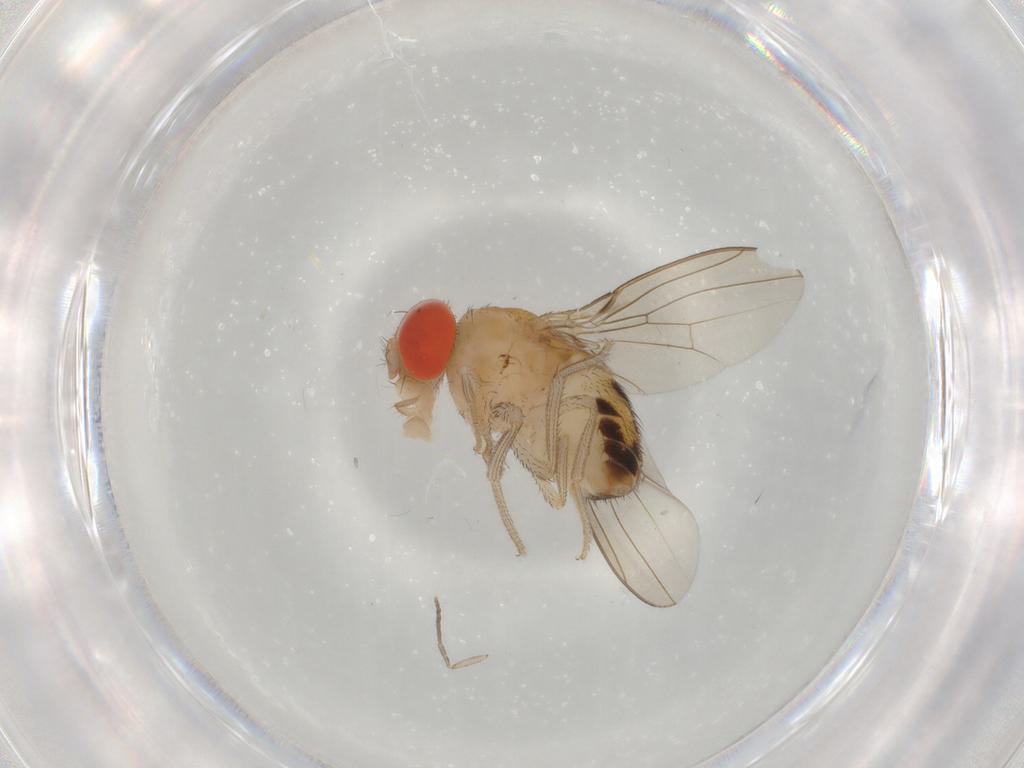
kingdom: Animalia
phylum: Arthropoda
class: Insecta
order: Diptera
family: Drosophilidae
